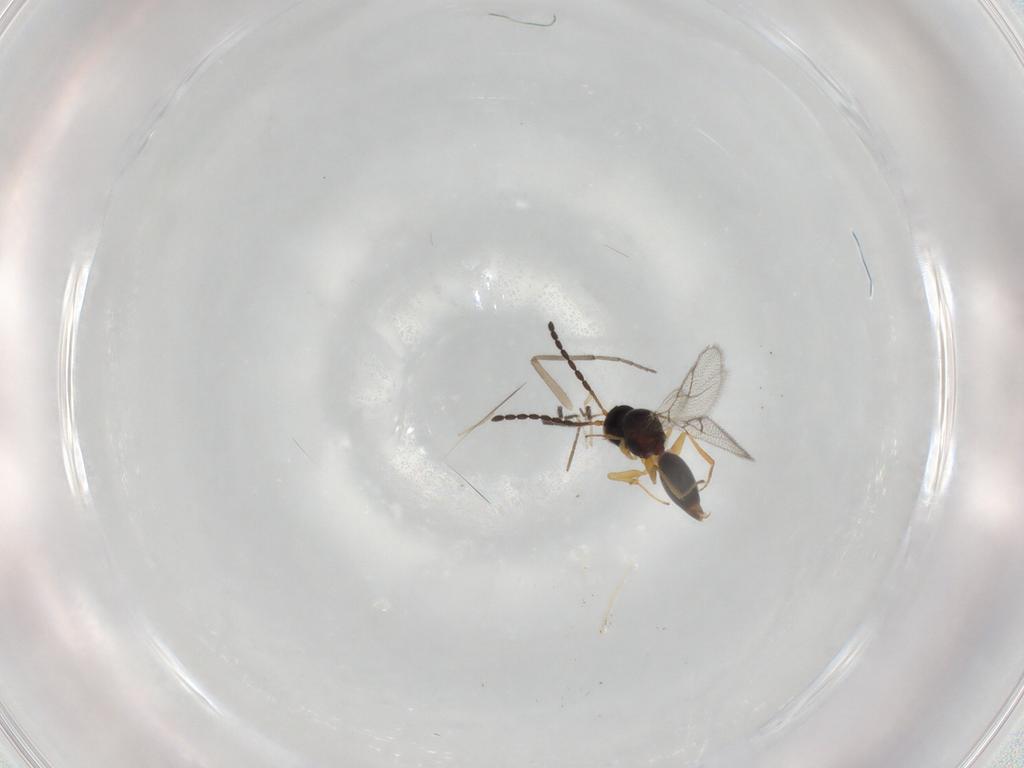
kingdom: Animalia
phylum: Arthropoda
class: Insecta
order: Hymenoptera
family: Figitidae
